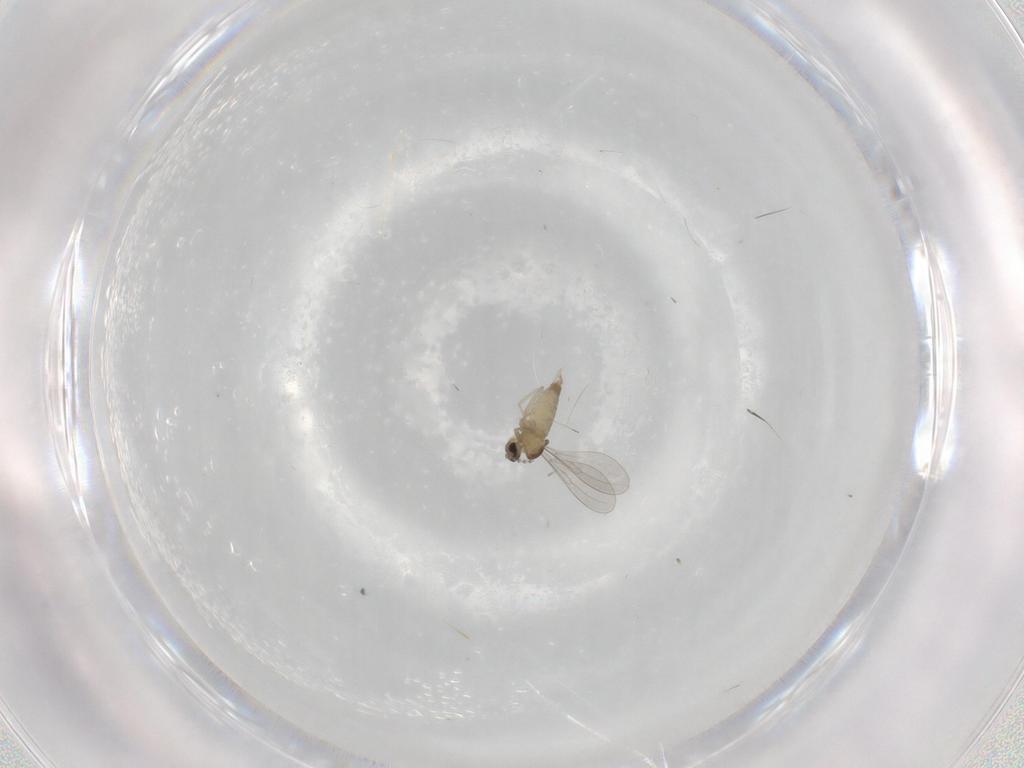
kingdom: Animalia
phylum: Arthropoda
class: Insecta
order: Diptera
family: Cecidomyiidae
